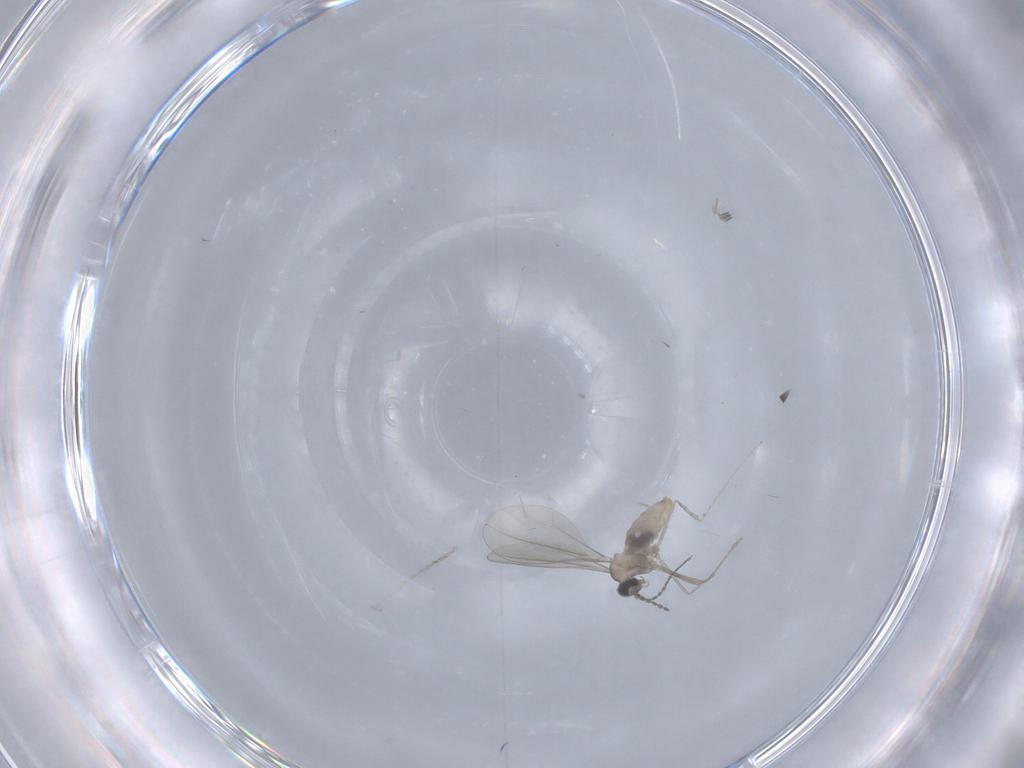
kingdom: Animalia
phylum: Arthropoda
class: Insecta
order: Diptera
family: Cecidomyiidae
